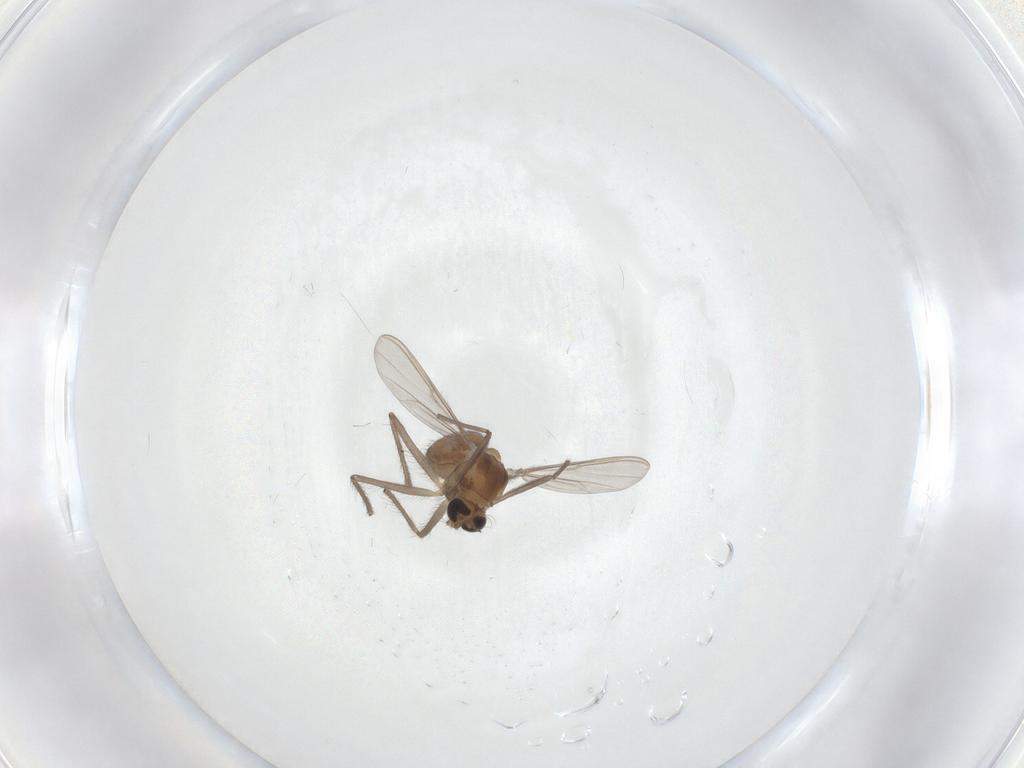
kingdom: Animalia
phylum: Arthropoda
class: Insecta
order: Diptera
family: Chironomidae
